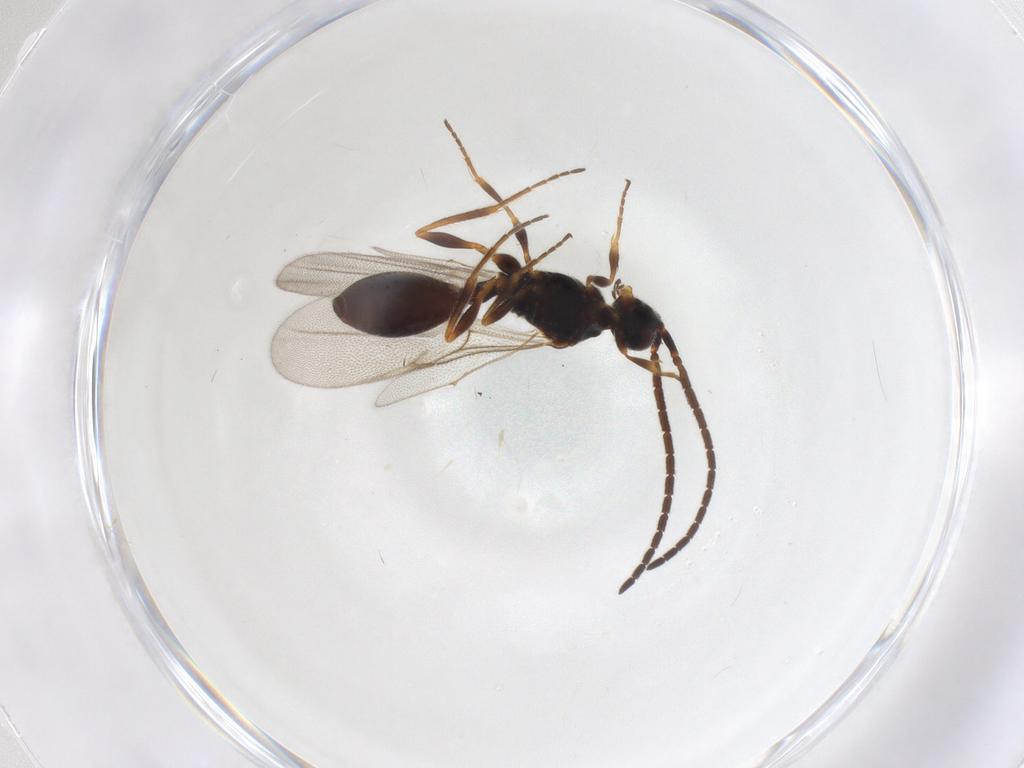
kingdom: Animalia
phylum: Arthropoda
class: Insecta
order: Hymenoptera
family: Diapriidae
